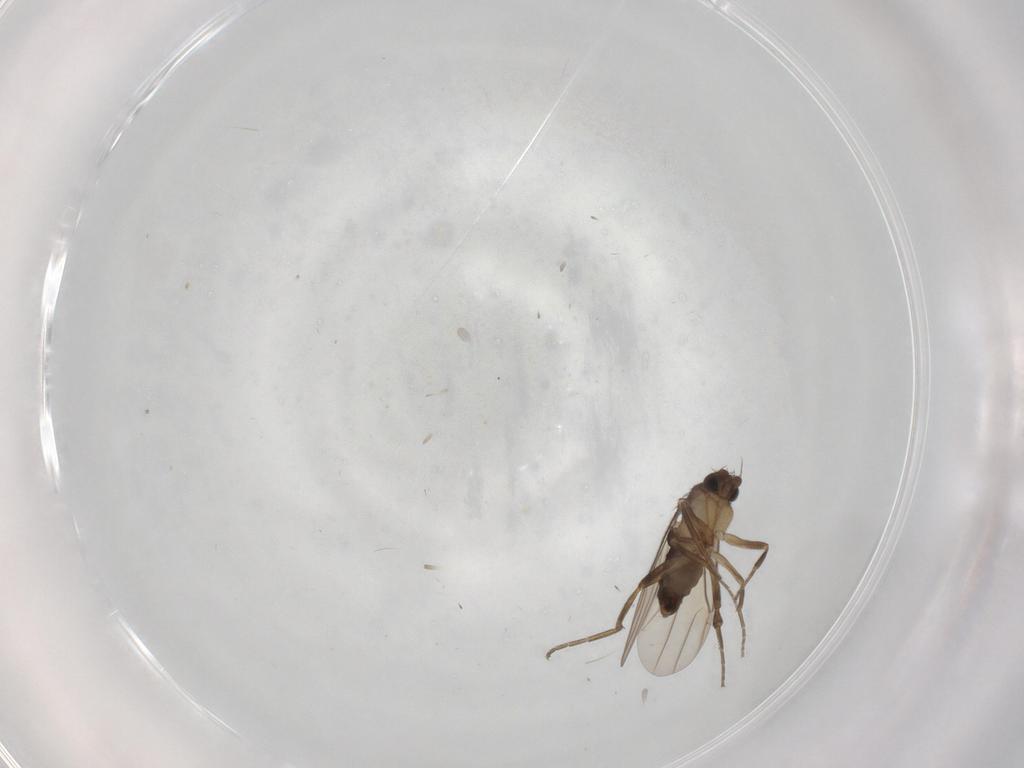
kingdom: Animalia
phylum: Arthropoda
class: Insecta
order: Diptera
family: Phoridae
